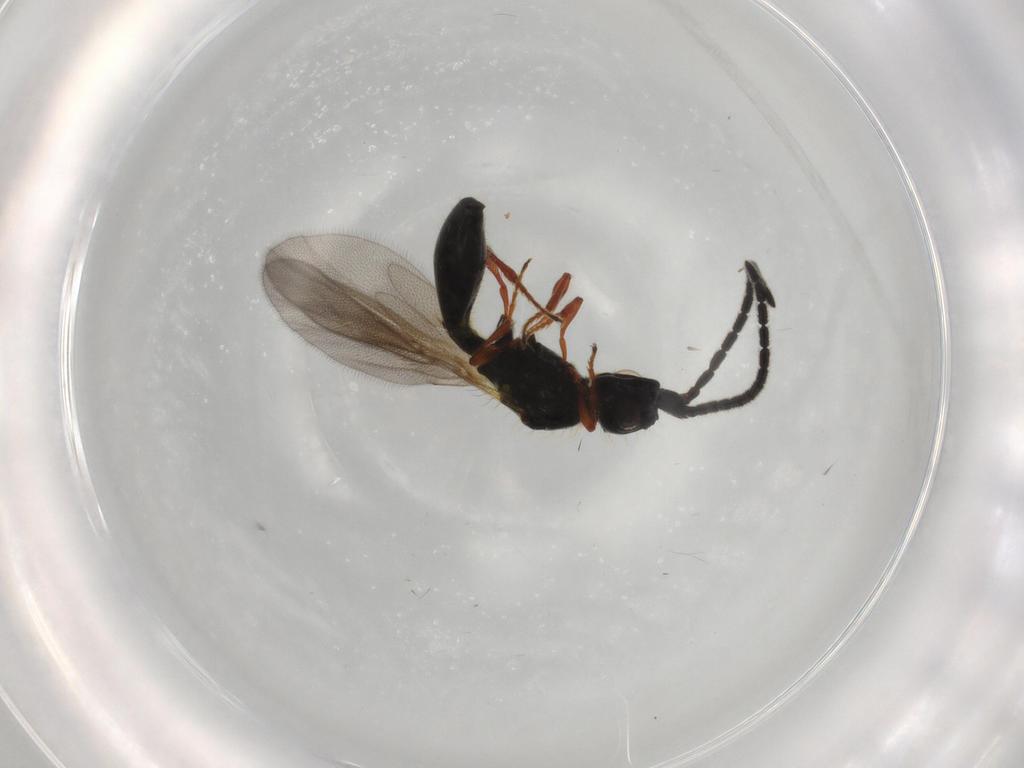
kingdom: Animalia
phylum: Arthropoda
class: Insecta
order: Hymenoptera
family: Diapriidae
